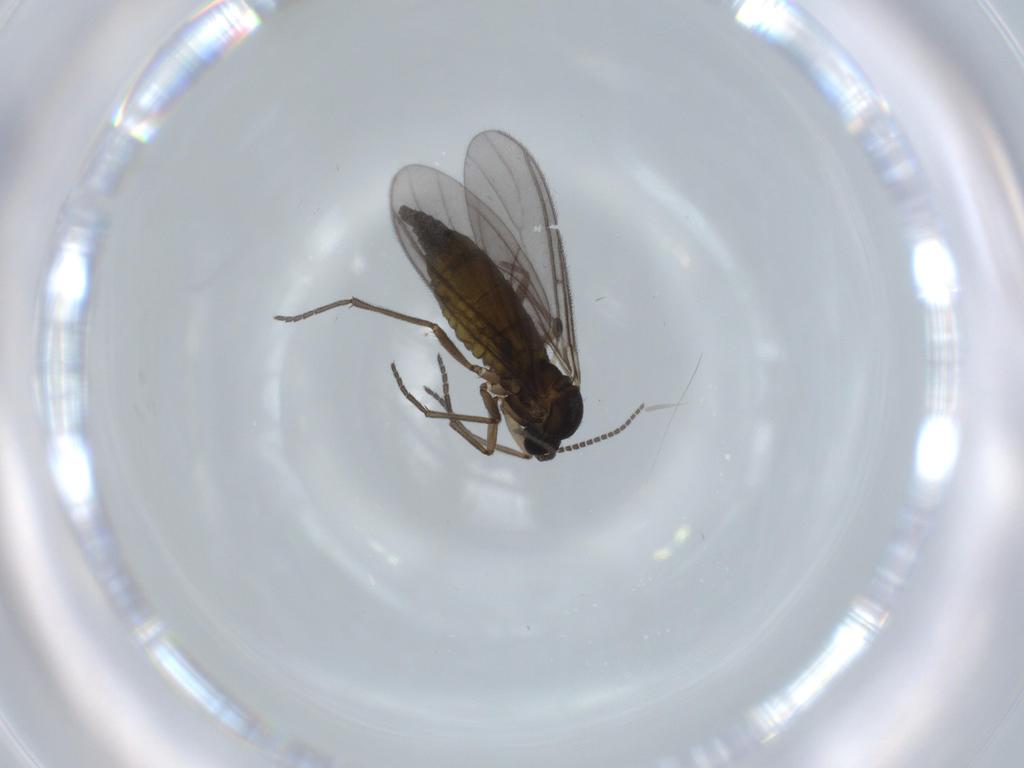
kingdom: Animalia
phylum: Arthropoda
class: Insecta
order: Diptera
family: Sciaridae
